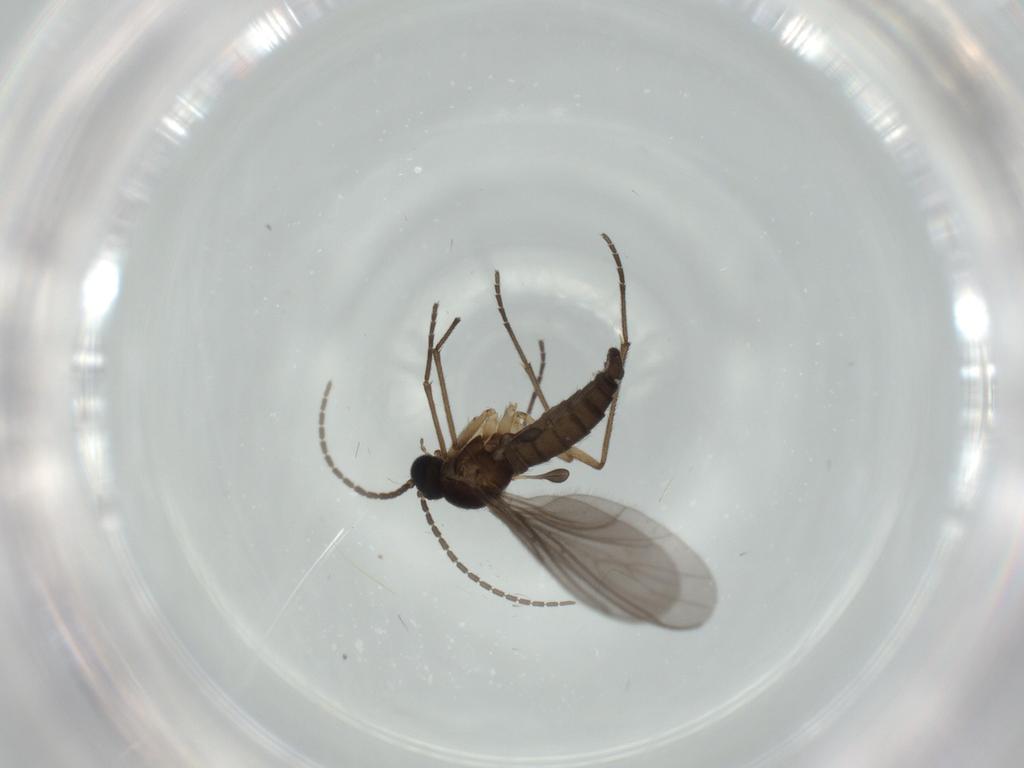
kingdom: Animalia
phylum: Arthropoda
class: Insecta
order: Diptera
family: Sciaridae
